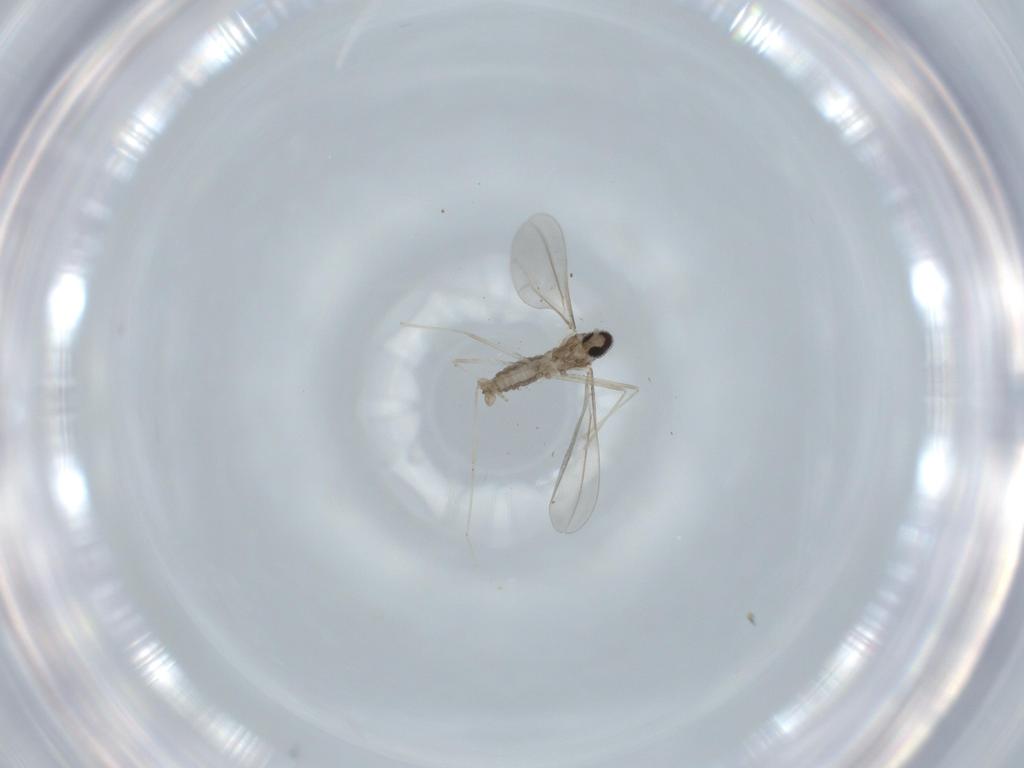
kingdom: Animalia
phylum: Arthropoda
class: Insecta
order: Diptera
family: Cecidomyiidae
